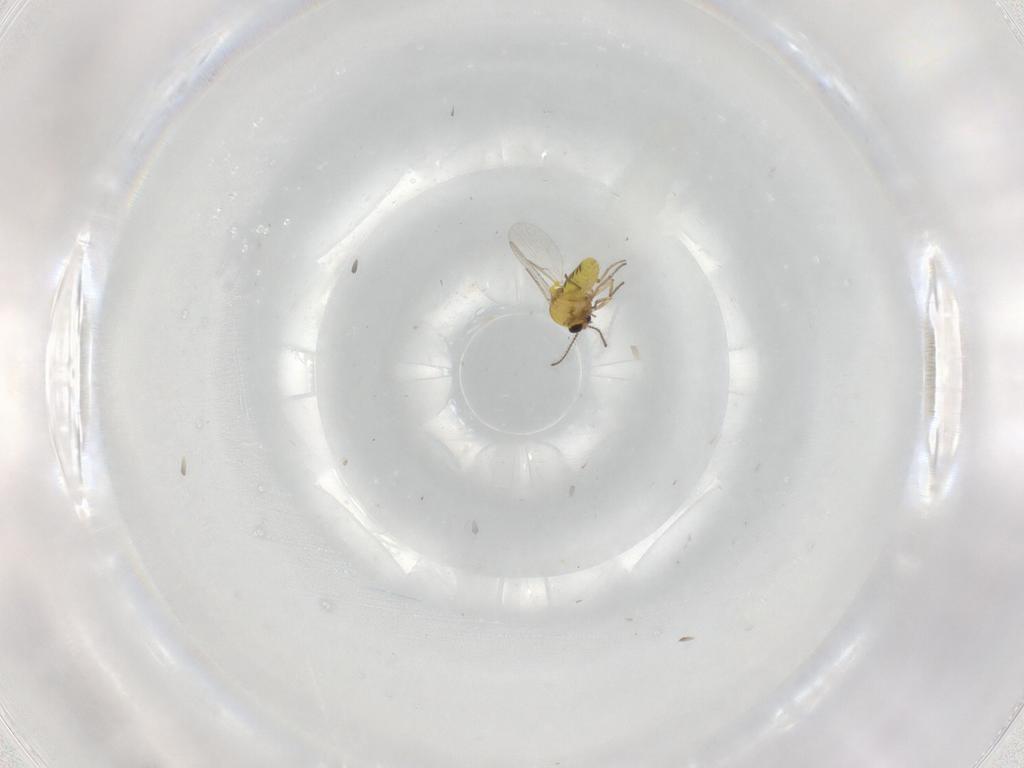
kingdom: Animalia
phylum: Arthropoda
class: Insecta
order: Diptera
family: Ceratopogonidae
